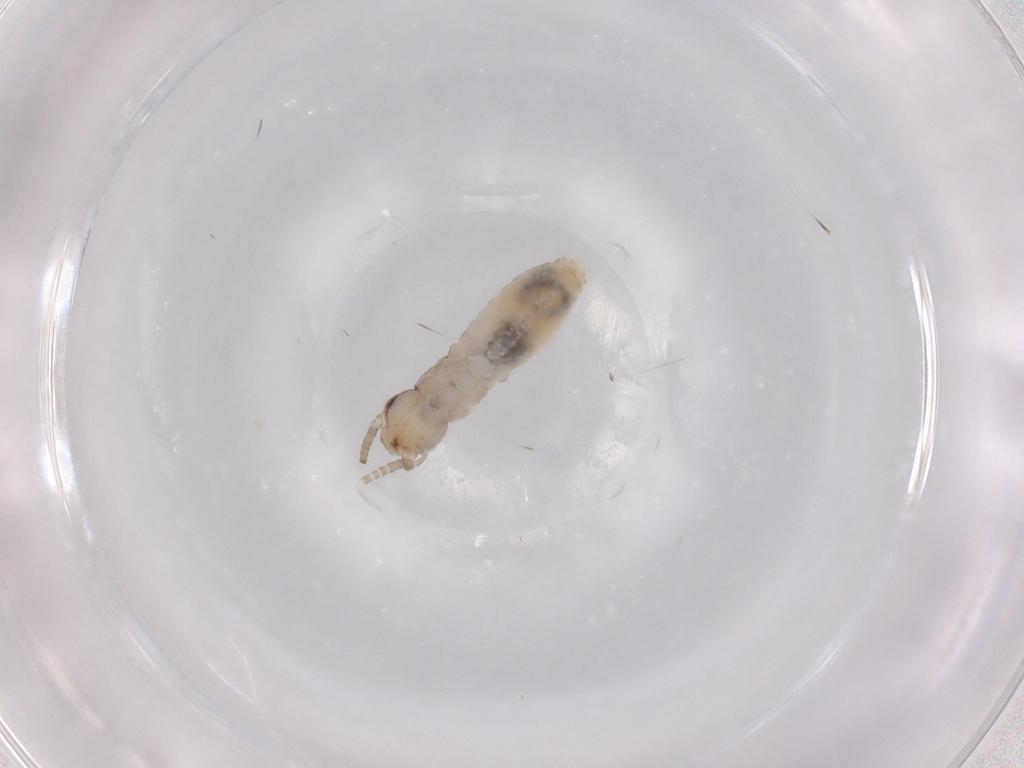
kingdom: Animalia
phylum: Arthropoda
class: Insecta
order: Orthoptera
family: Gryllidae
